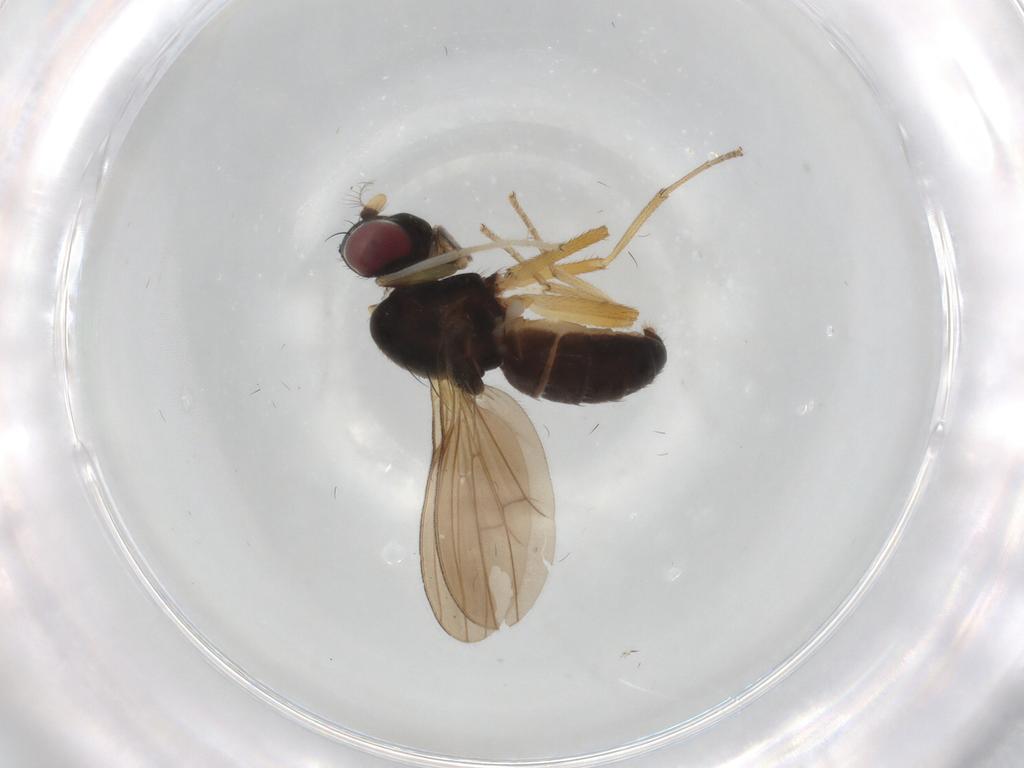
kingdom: Animalia
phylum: Arthropoda
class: Insecta
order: Diptera
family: Lauxaniidae
